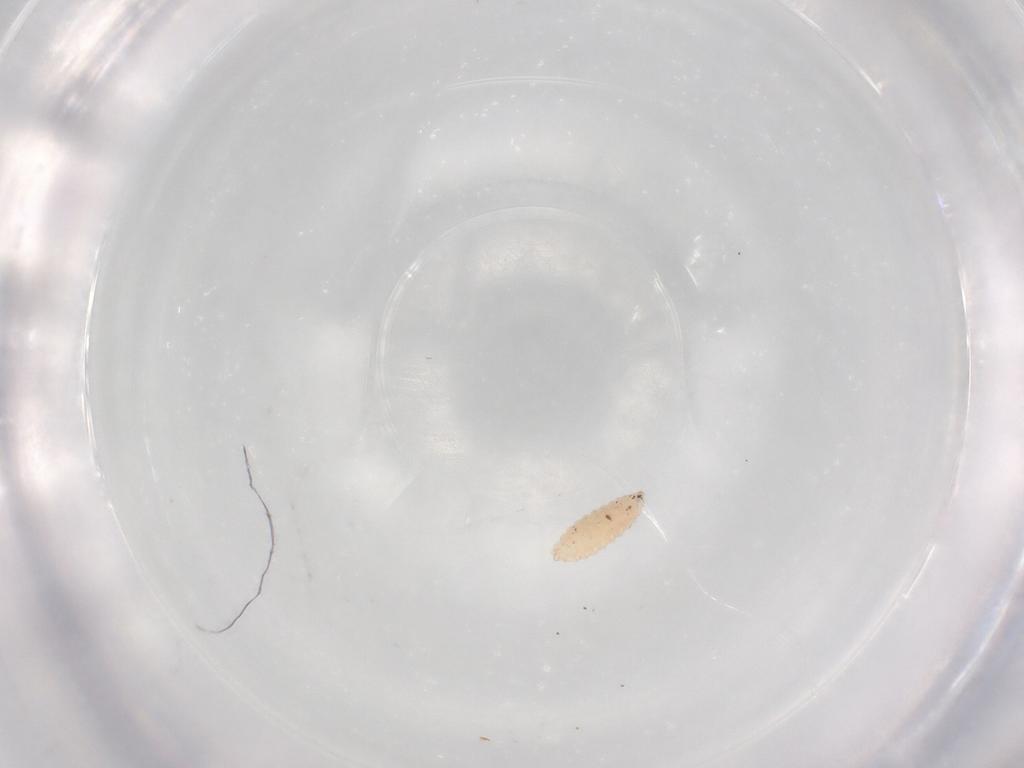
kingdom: Animalia
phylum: Arthropoda
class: Insecta
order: Diptera
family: Cecidomyiidae
